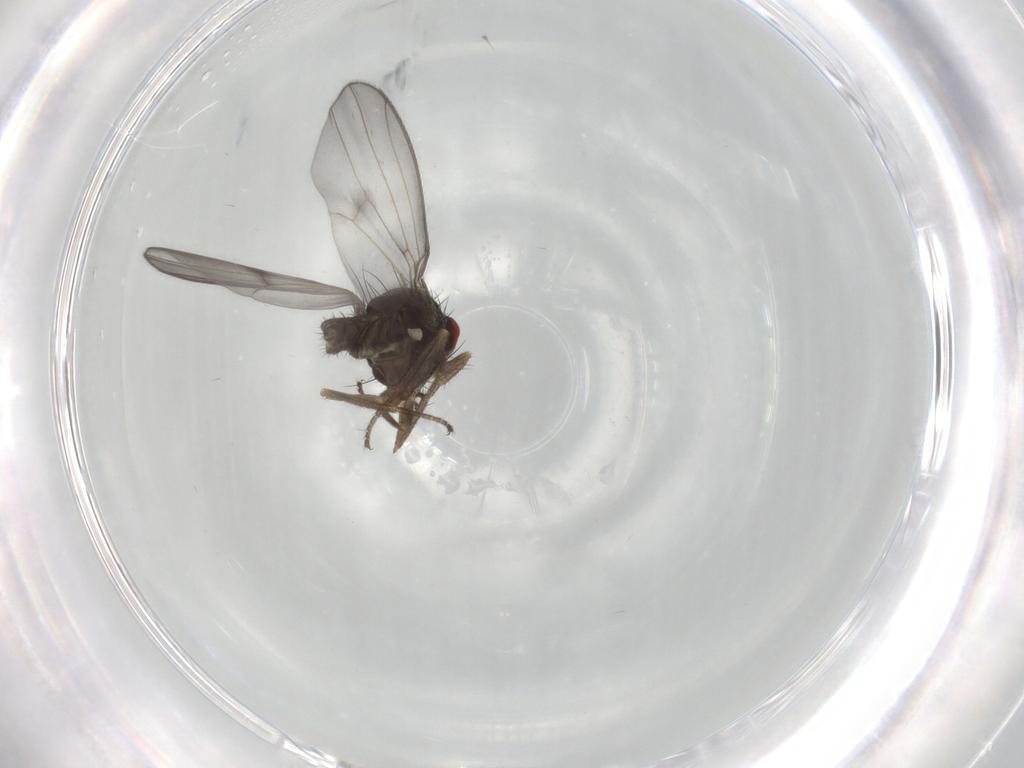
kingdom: Animalia
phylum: Arthropoda
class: Insecta
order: Diptera
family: Drosophilidae
